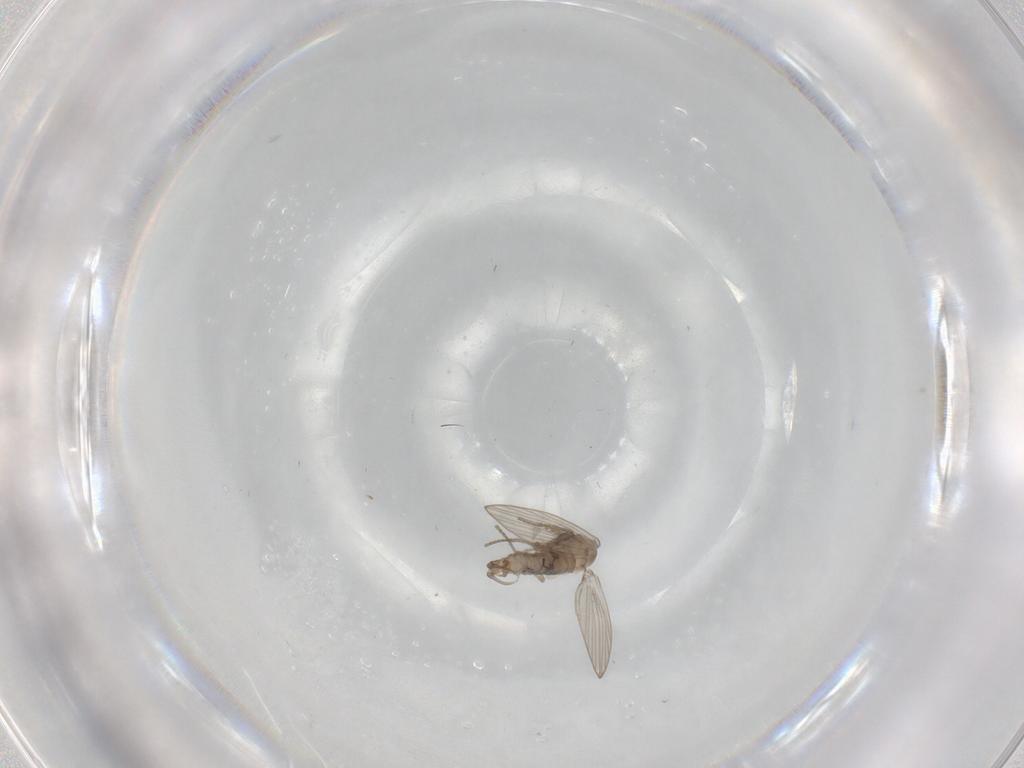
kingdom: Animalia
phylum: Arthropoda
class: Insecta
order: Diptera
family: Psychodidae
